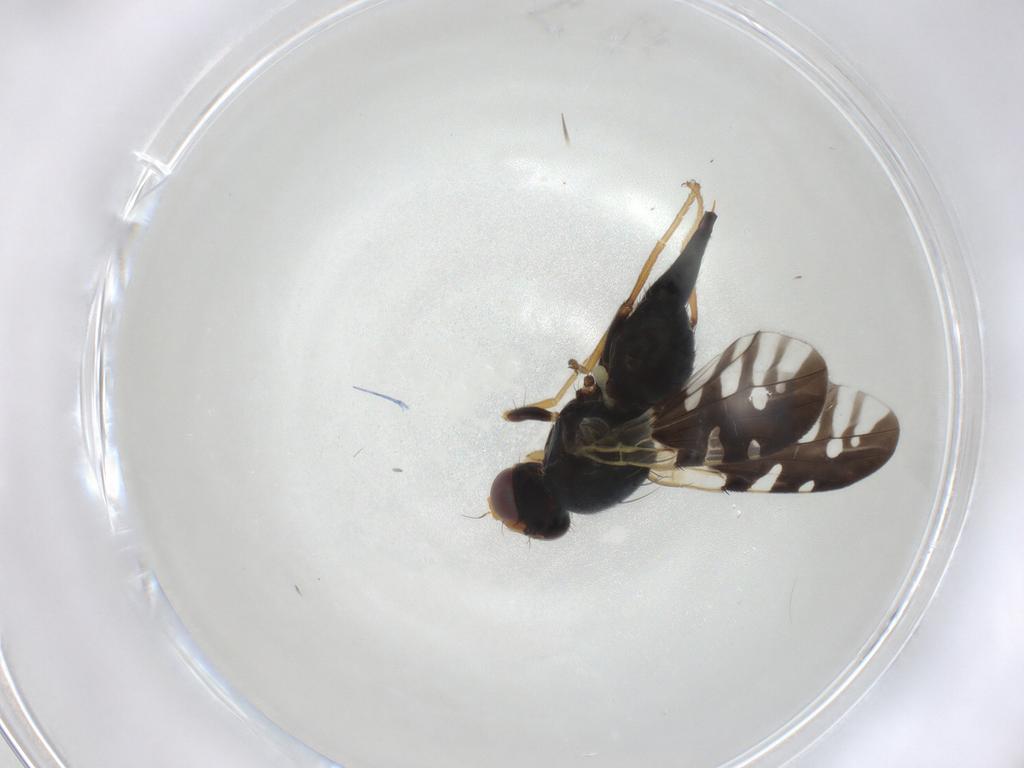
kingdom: Animalia
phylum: Arthropoda
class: Insecta
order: Diptera
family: Tephritidae
